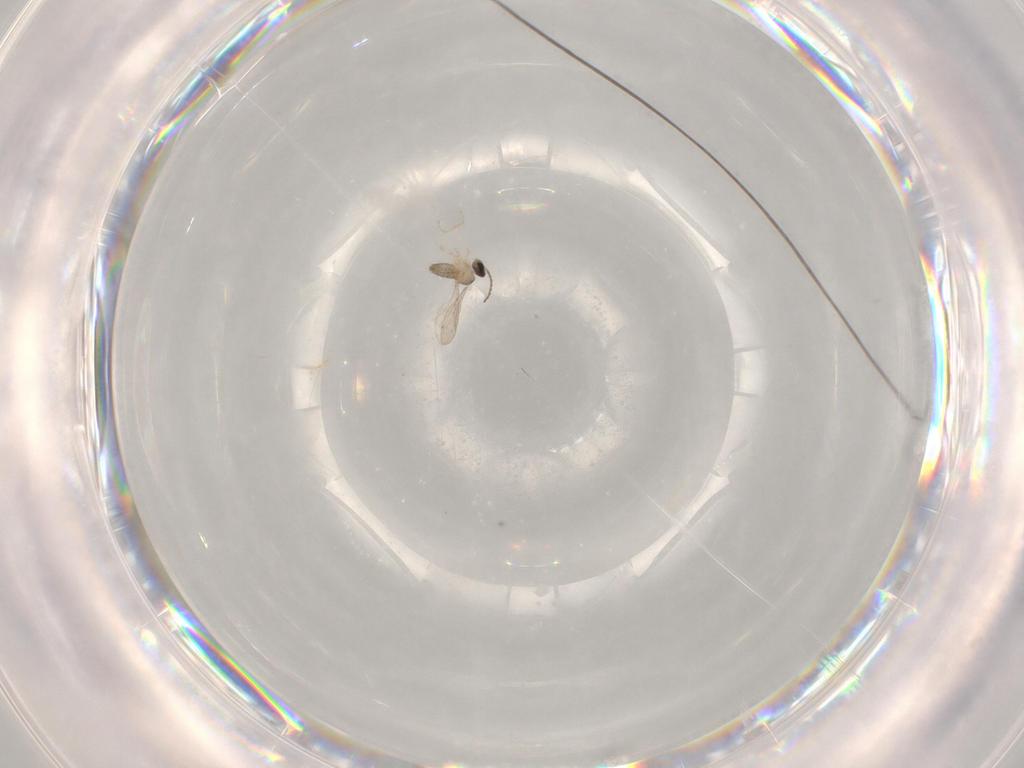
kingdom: Animalia
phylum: Arthropoda
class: Insecta
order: Diptera
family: Cecidomyiidae
